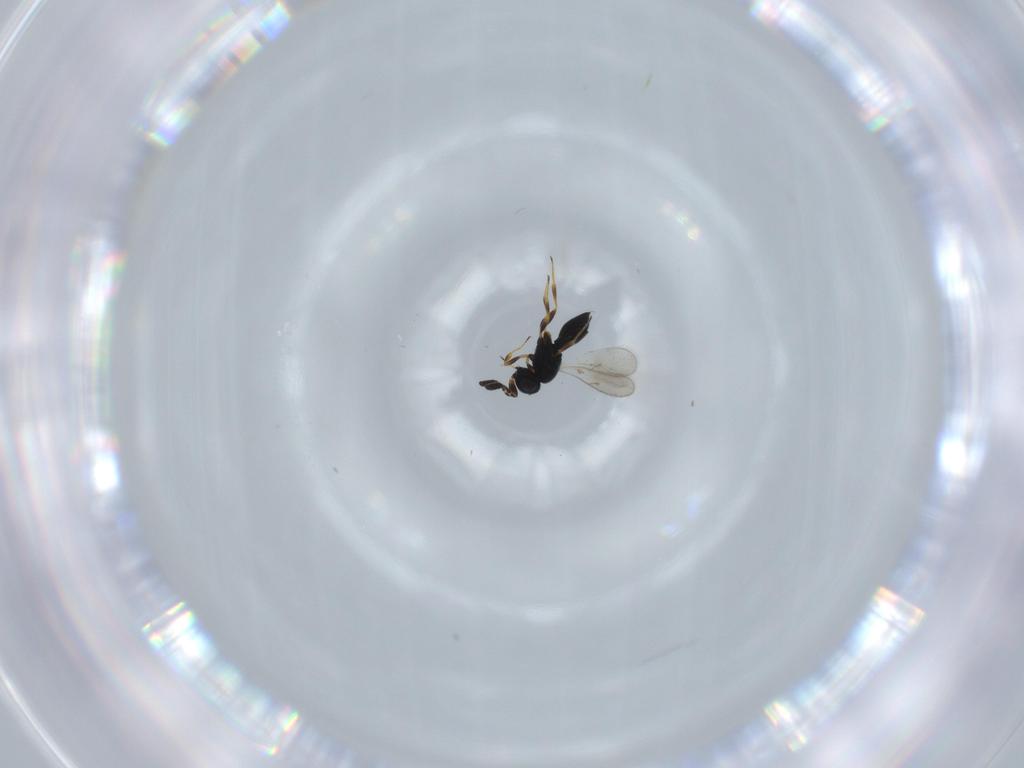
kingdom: Animalia
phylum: Arthropoda
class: Insecta
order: Hymenoptera
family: Scelionidae
